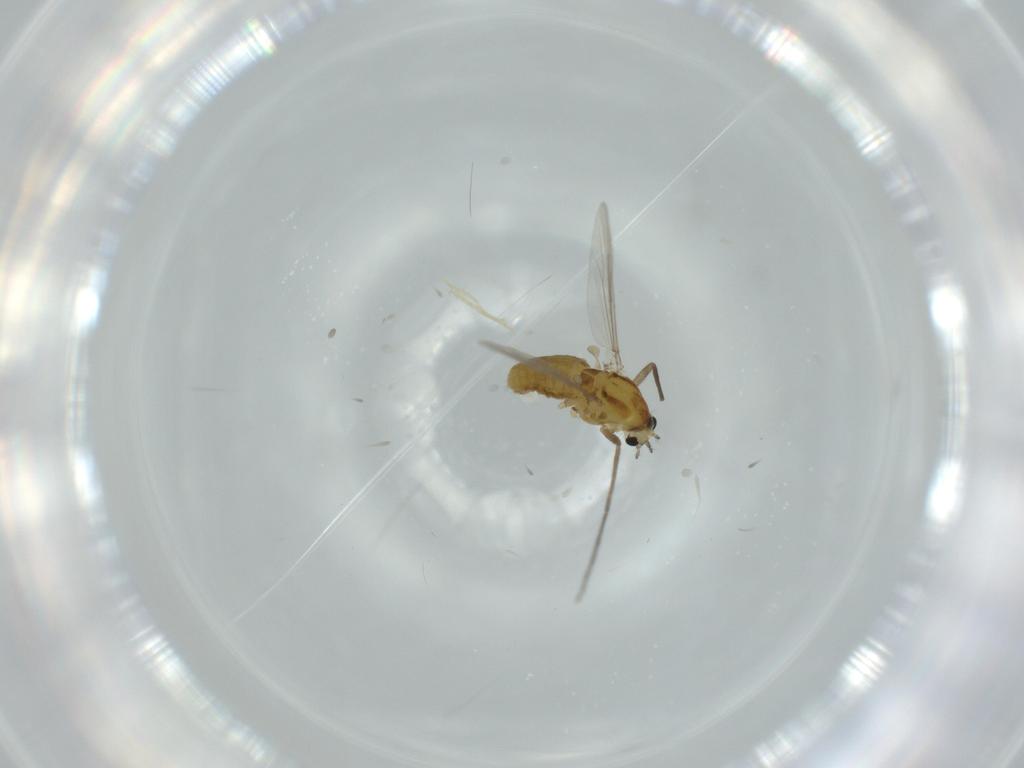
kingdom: Animalia
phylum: Arthropoda
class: Insecta
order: Diptera
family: Chironomidae
